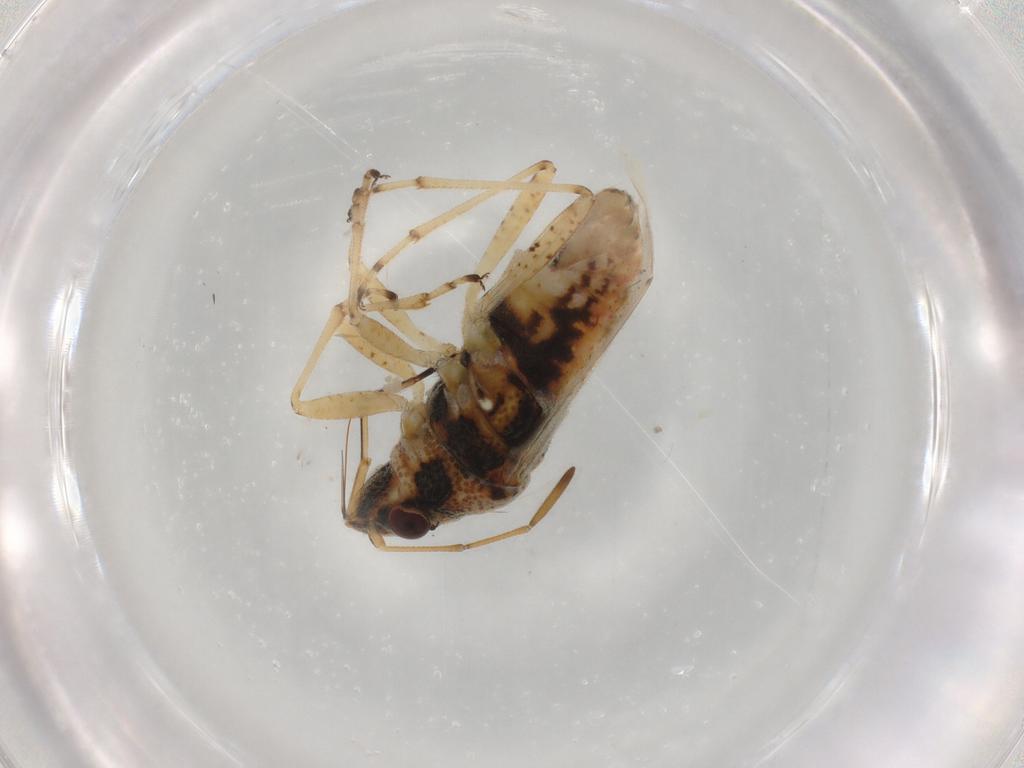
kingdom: Animalia
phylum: Arthropoda
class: Insecta
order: Hemiptera
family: Lygaeidae
